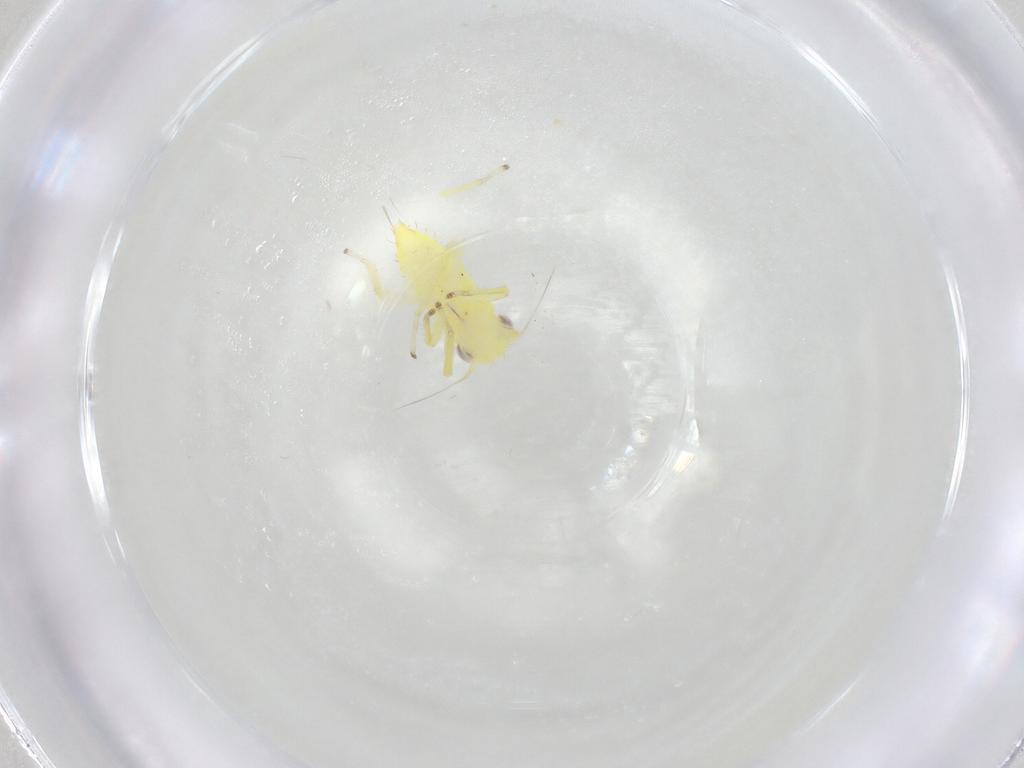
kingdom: Animalia
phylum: Arthropoda
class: Insecta
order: Hemiptera
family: Cicadellidae
